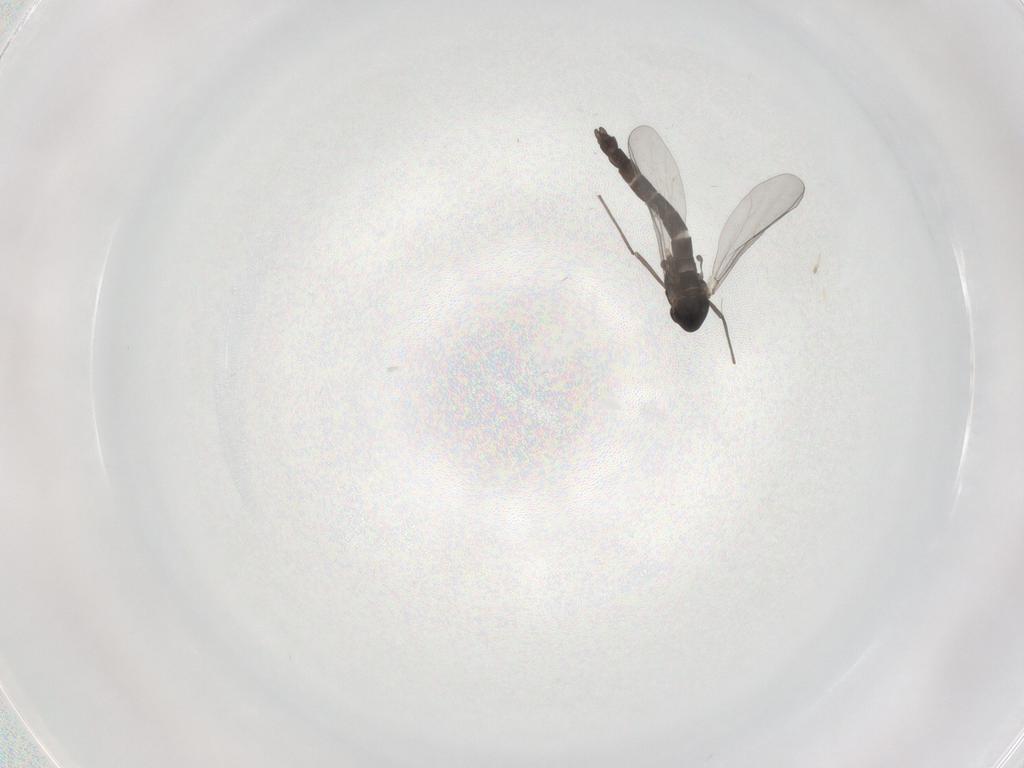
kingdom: Animalia
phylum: Arthropoda
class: Insecta
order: Diptera
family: Chironomidae
